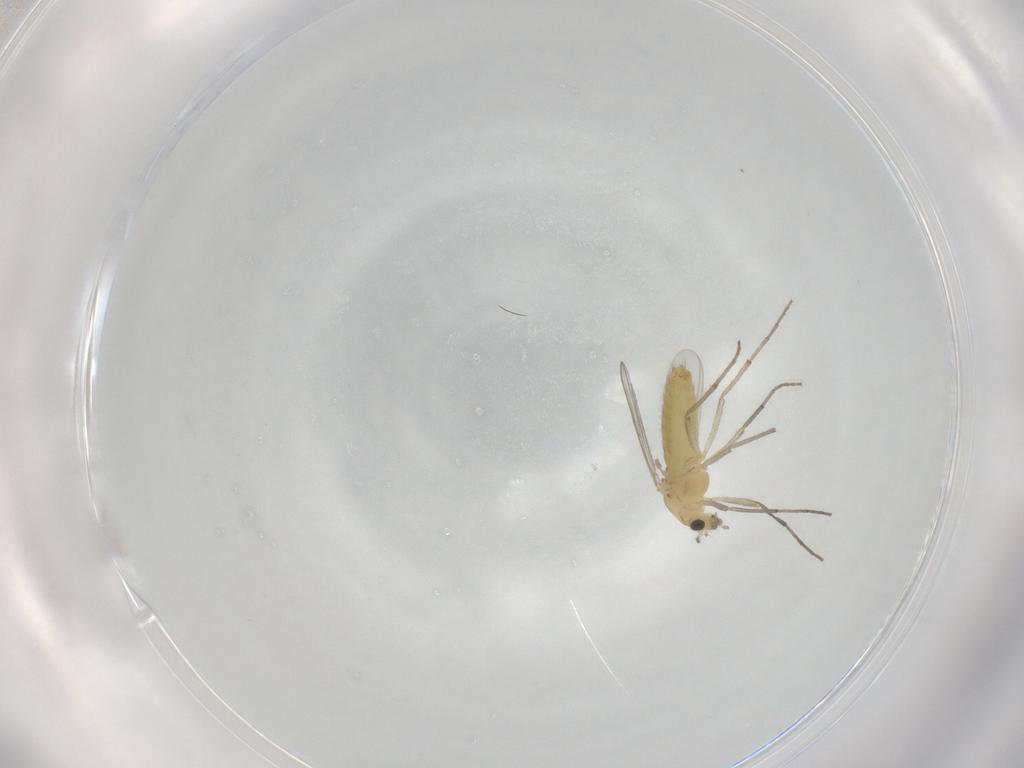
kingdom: Animalia
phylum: Arthropoda
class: Insecta
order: Diptera
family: Chironomidae
